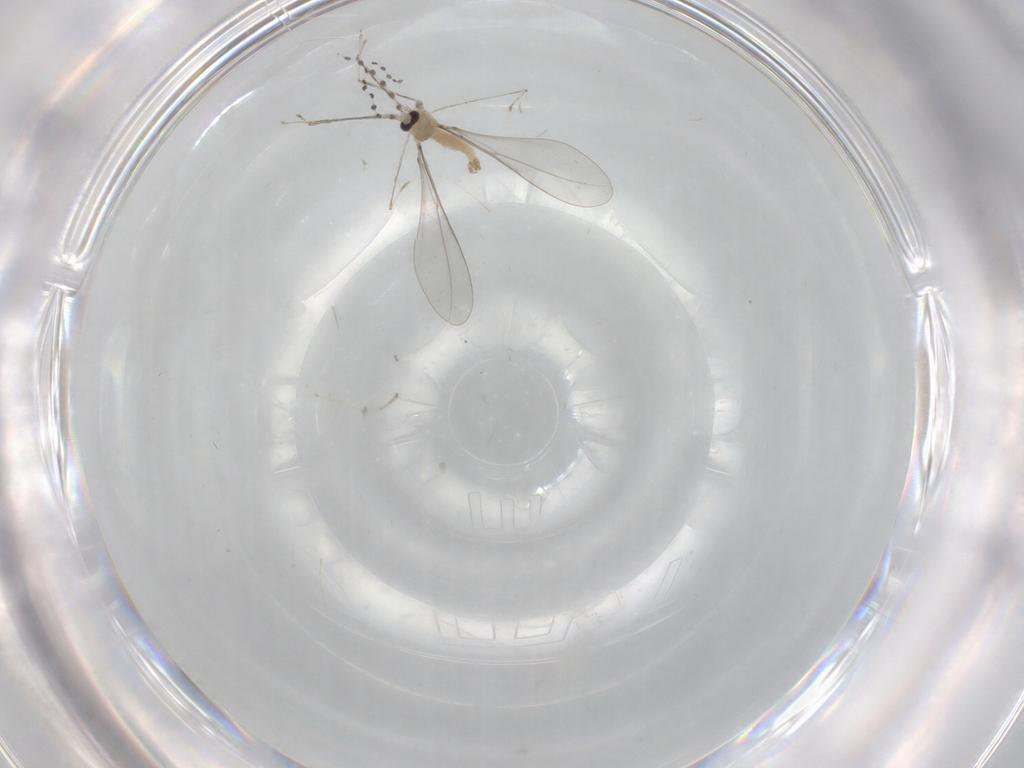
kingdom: Animalia
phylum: Arthropoda
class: Insecta
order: Diptera
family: Cecidomyiidae
